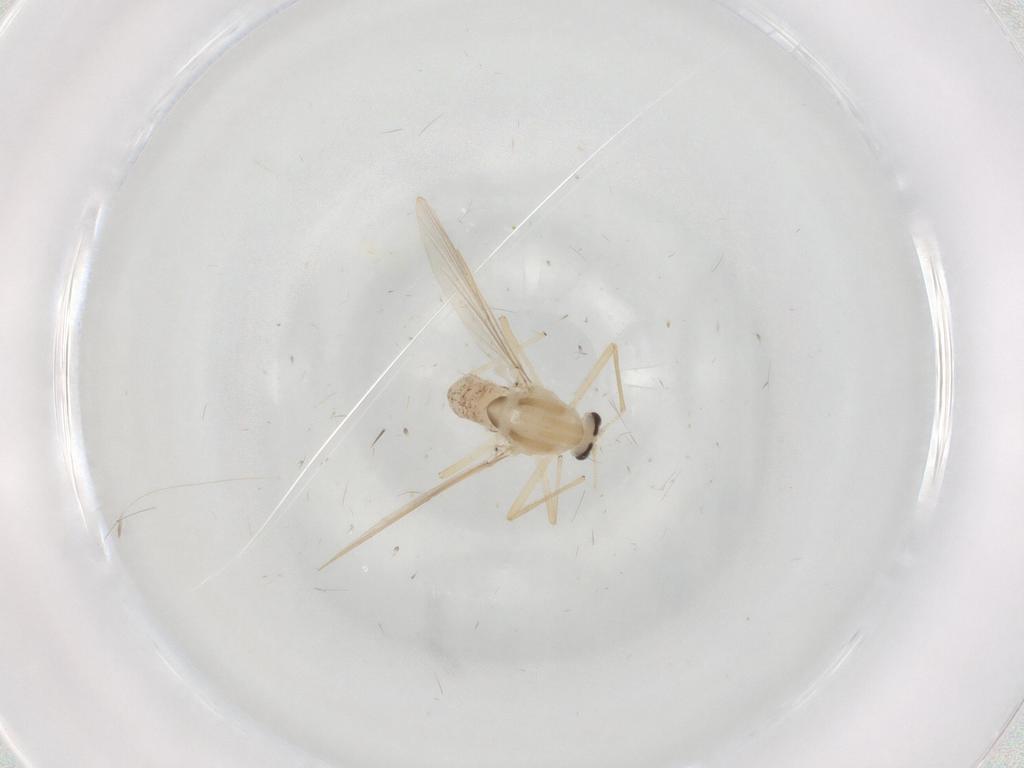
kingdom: Animalia
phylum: Arthropoda
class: Insecta
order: Diptera
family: Chironomidae
